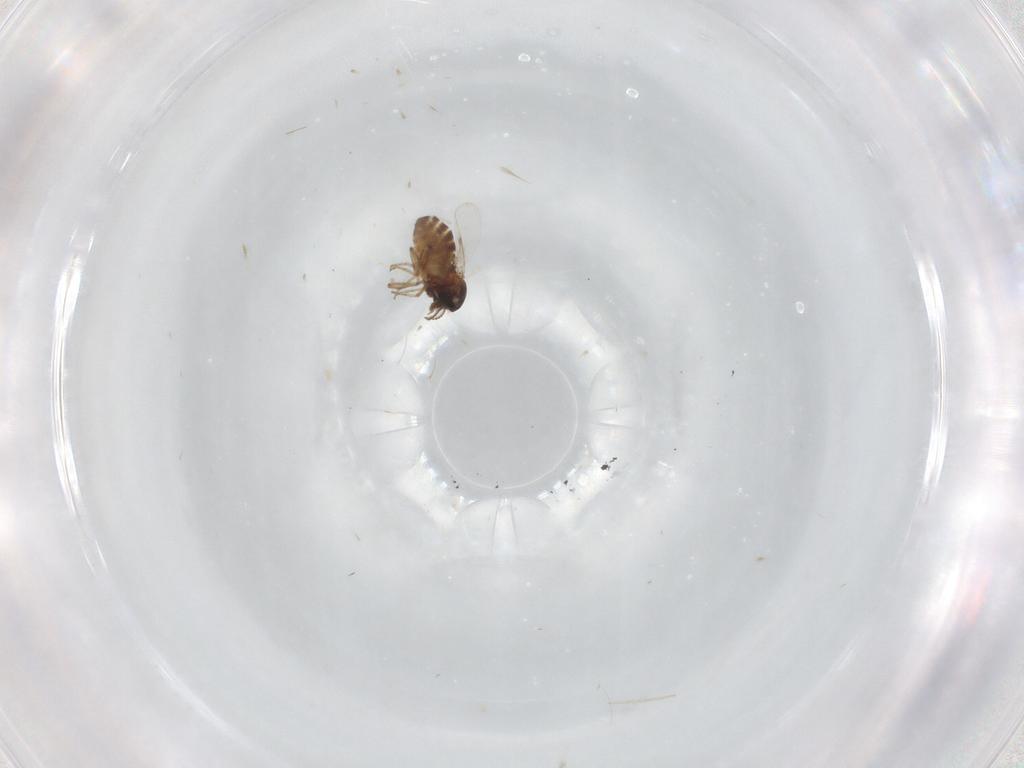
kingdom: Animalia
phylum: Arthropoda
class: Insecta
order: Diptera
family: Ceratopogonidae
